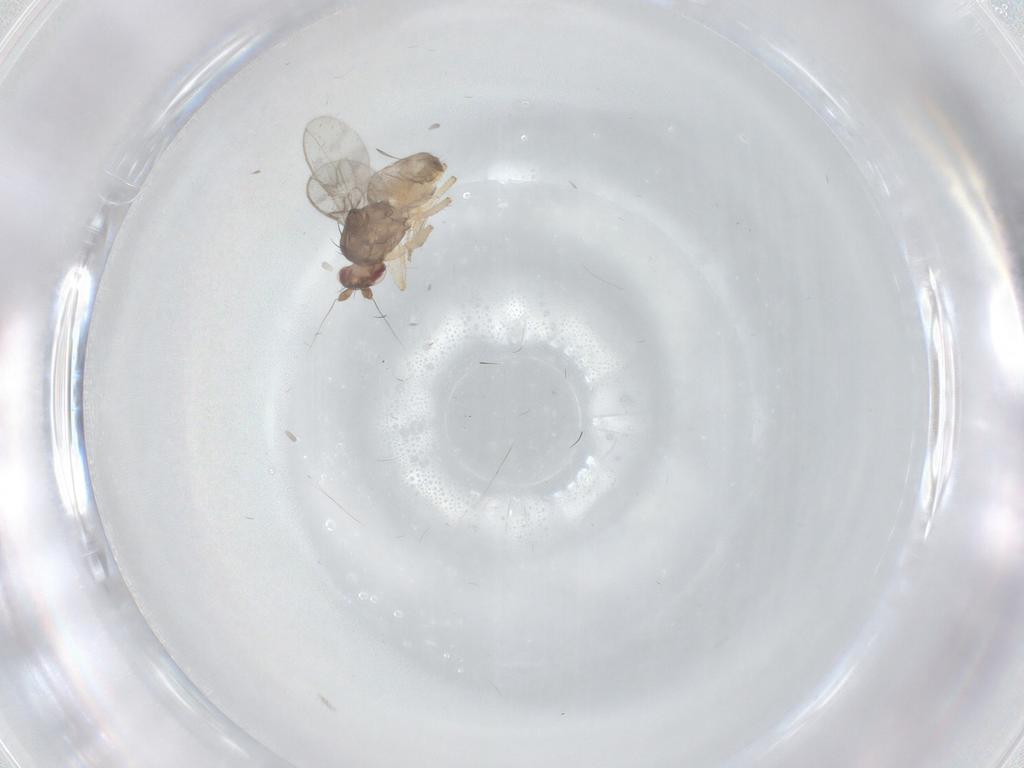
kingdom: Animalia
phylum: Arthropoda
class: Insecta
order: Diptera
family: Sphaeroceridae
